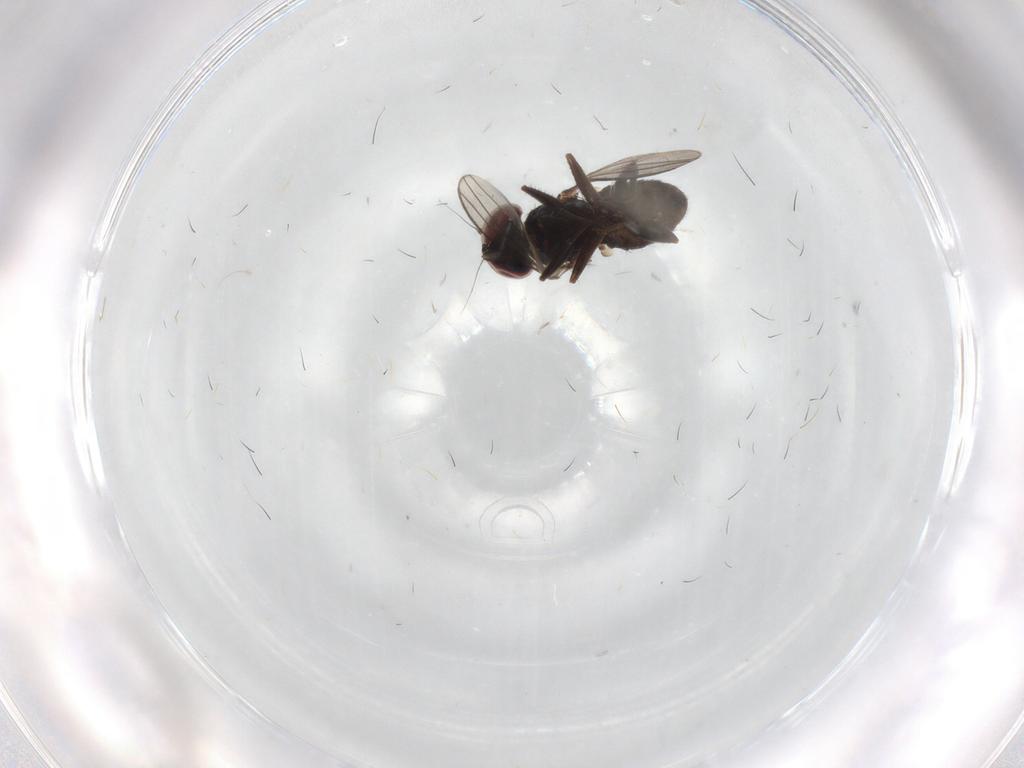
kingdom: Animalia
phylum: Arthropoda
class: Insecta
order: Diptera
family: Dolichopodidae
